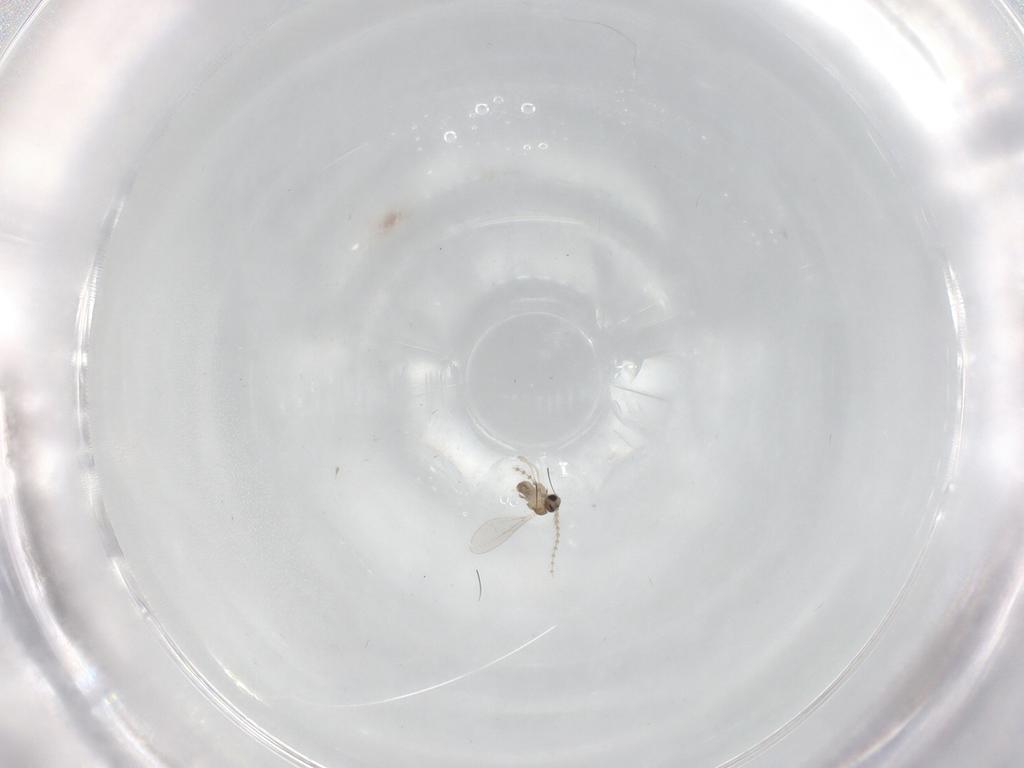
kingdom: Animalia
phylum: Arthropoda
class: Insecta
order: Diptera
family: Cecidomyiidae
